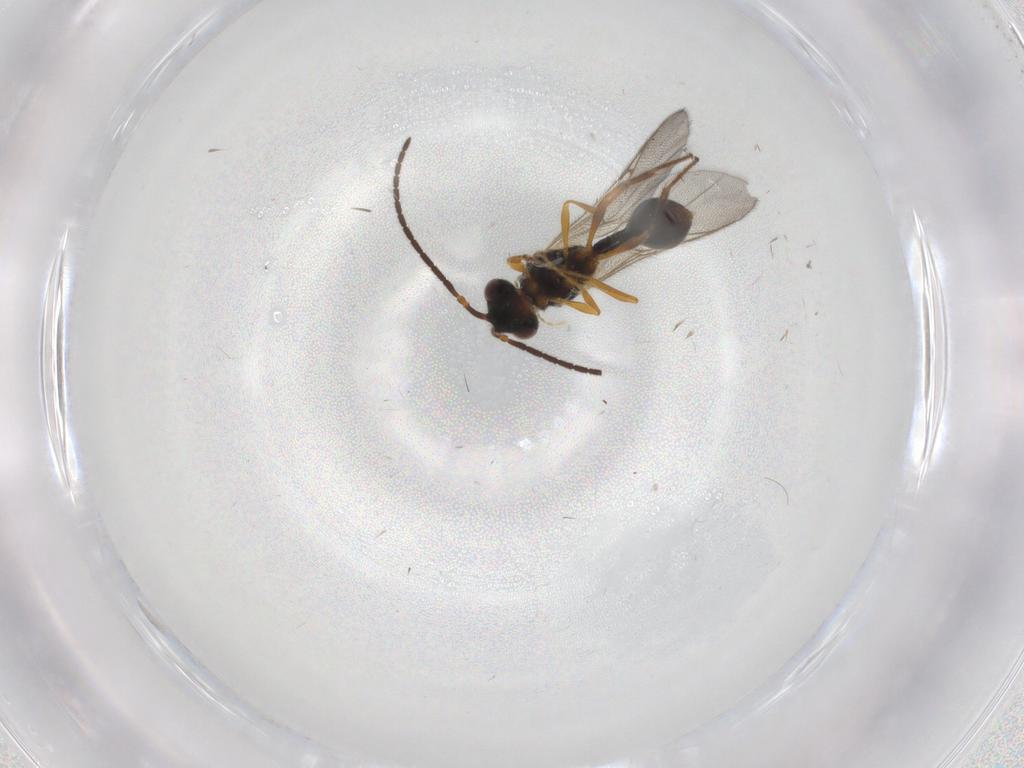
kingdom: Animalia
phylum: Arthropoda
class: Insecta
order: Hymenoptera
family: Diapriidae
